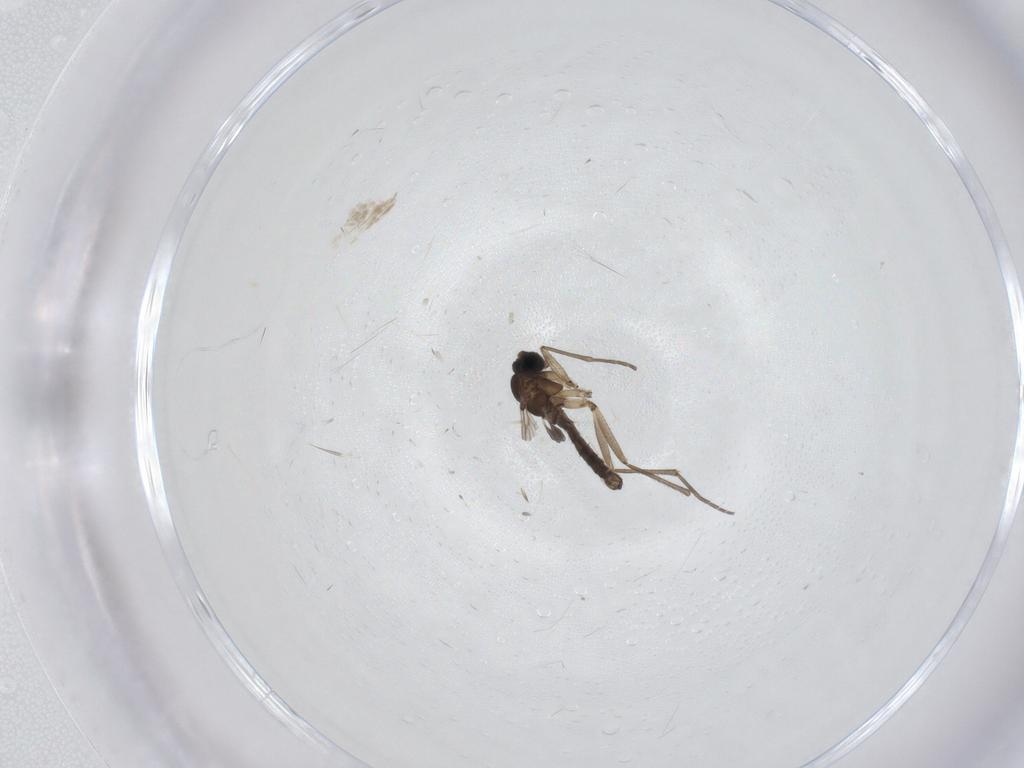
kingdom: Animalia
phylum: Arthropoda
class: Insecta
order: Diptera
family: Sciaridae
